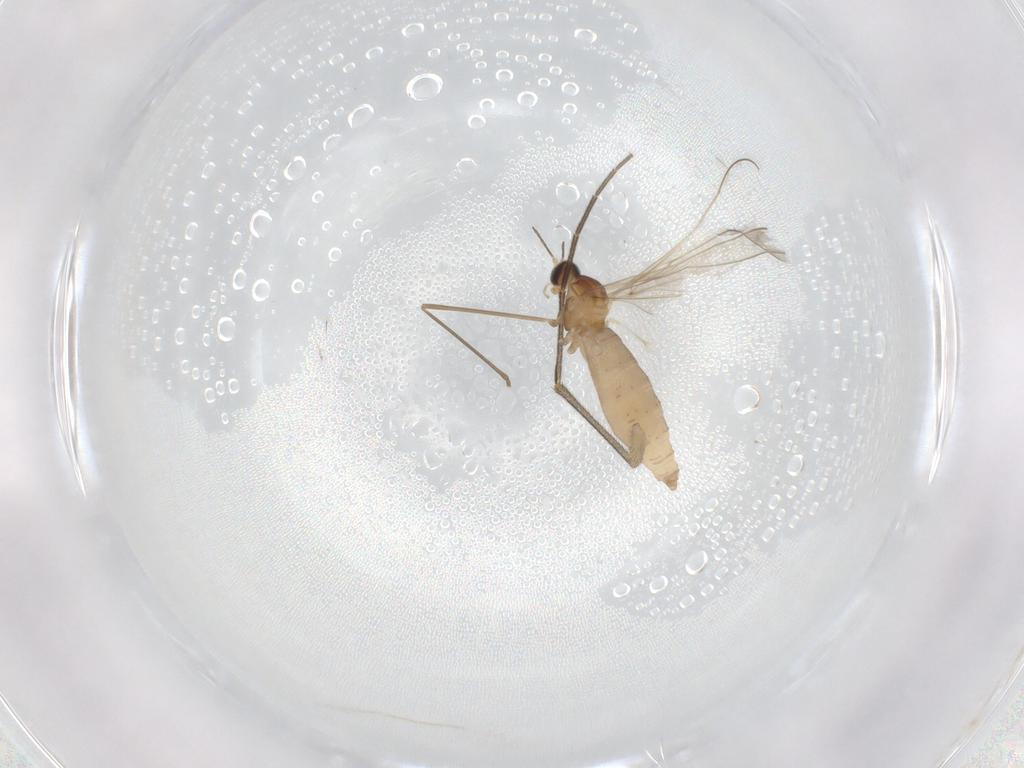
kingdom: Animalia
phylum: Arthropoda
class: Insecta
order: Diptera
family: Cecidomyiidae
